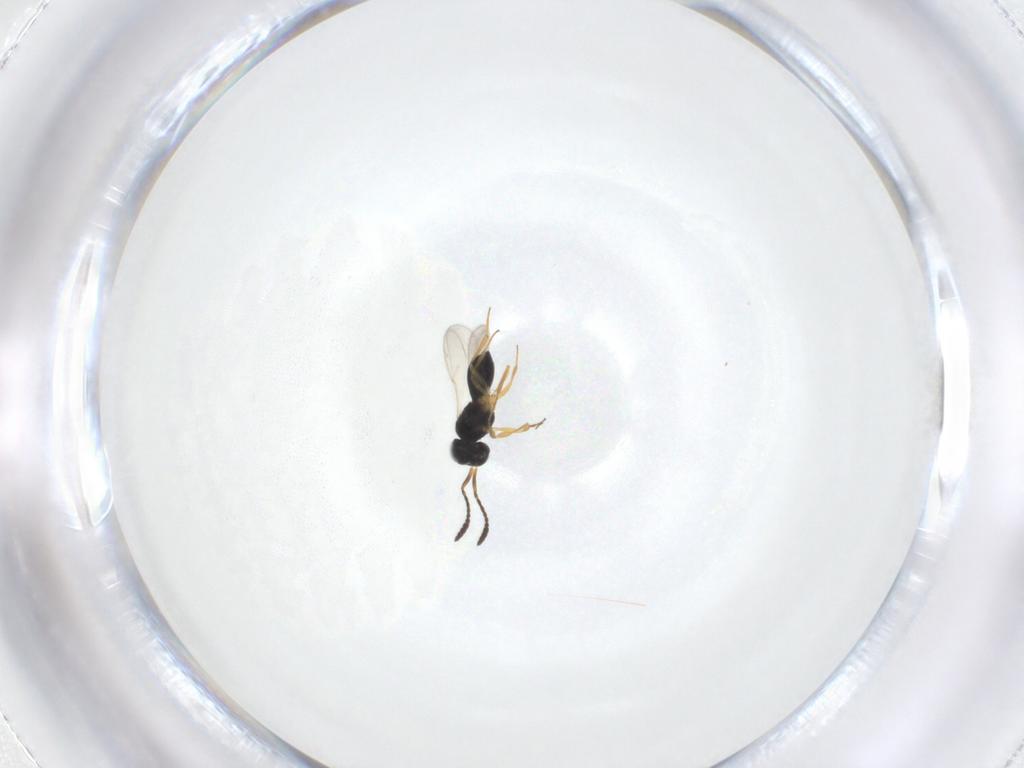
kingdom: Animalia
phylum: Arthropoda
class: Insecta
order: Hymenoptera
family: Scelionidae
